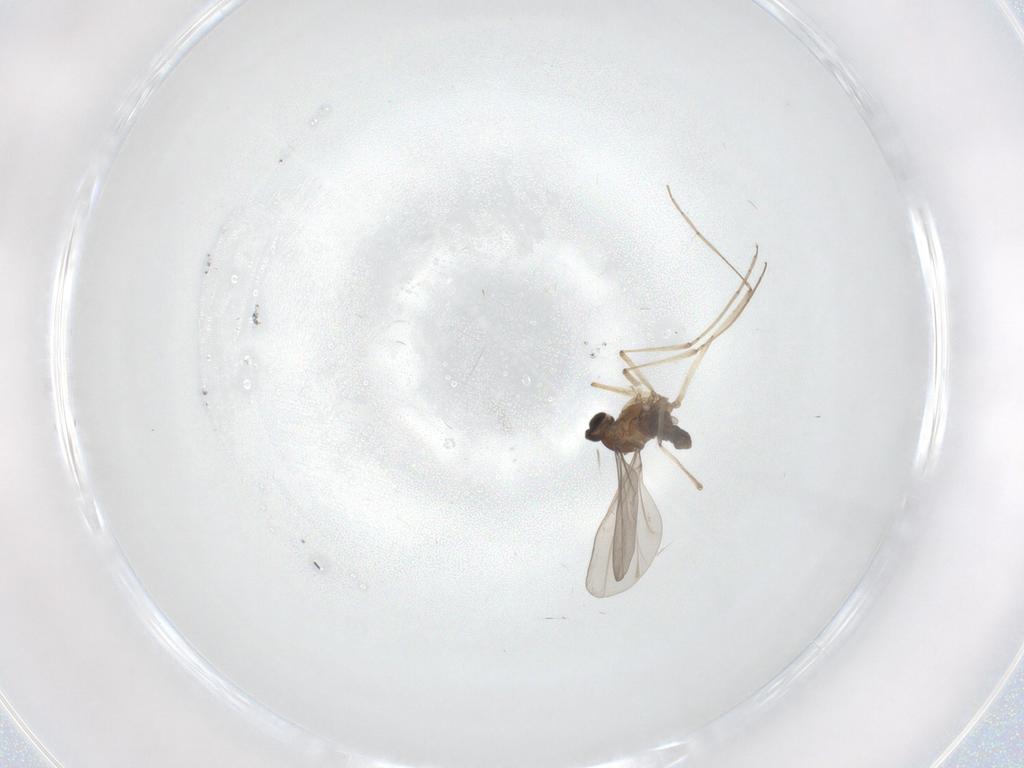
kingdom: Animalia
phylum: Arthropoda
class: Insecta
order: Diptera
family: Cecidomyiidae
